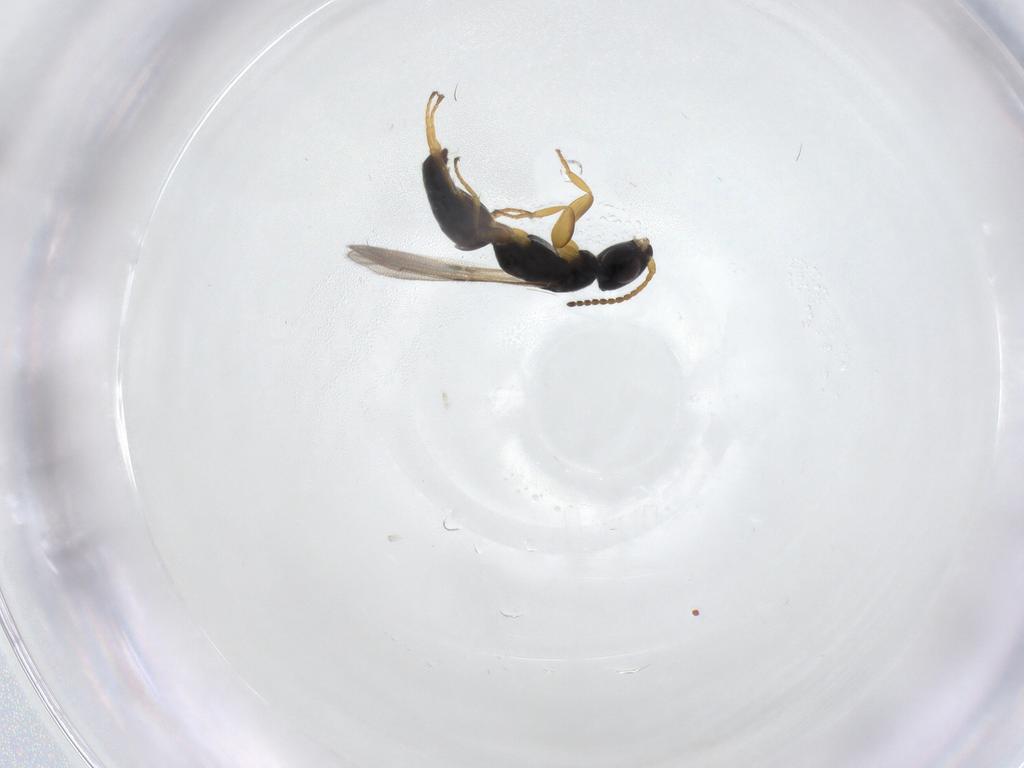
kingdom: Animalia
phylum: Arthropoda
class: Insecta
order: Hymenoptera
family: Bethylidae
